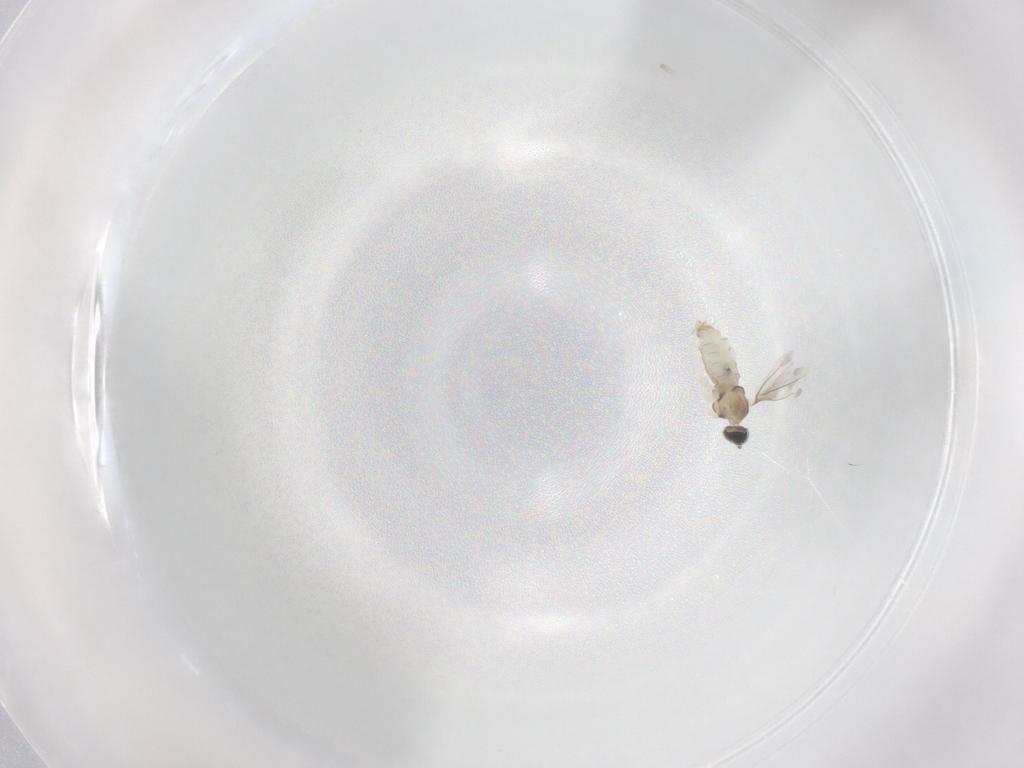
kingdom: Animalia
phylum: Arthropoda
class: Insecta
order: Diptera
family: Cecidomyiidae
